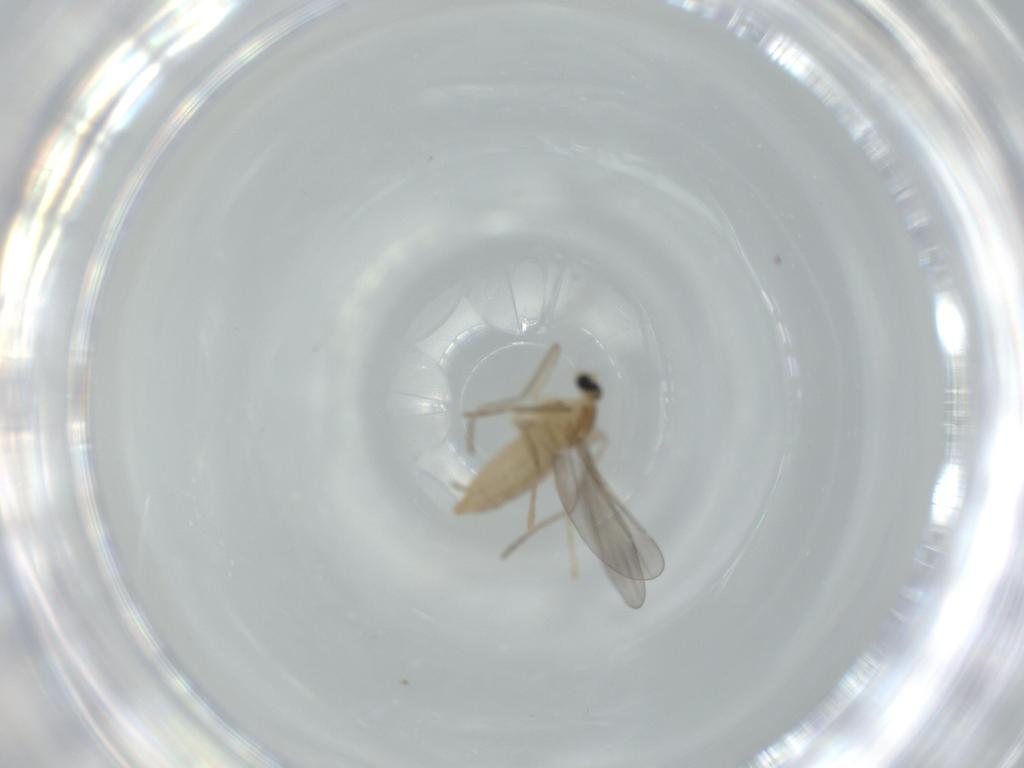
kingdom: Animalia
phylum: Arthropoda
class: Insecta
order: Diptera
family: Cecidomyiidae
